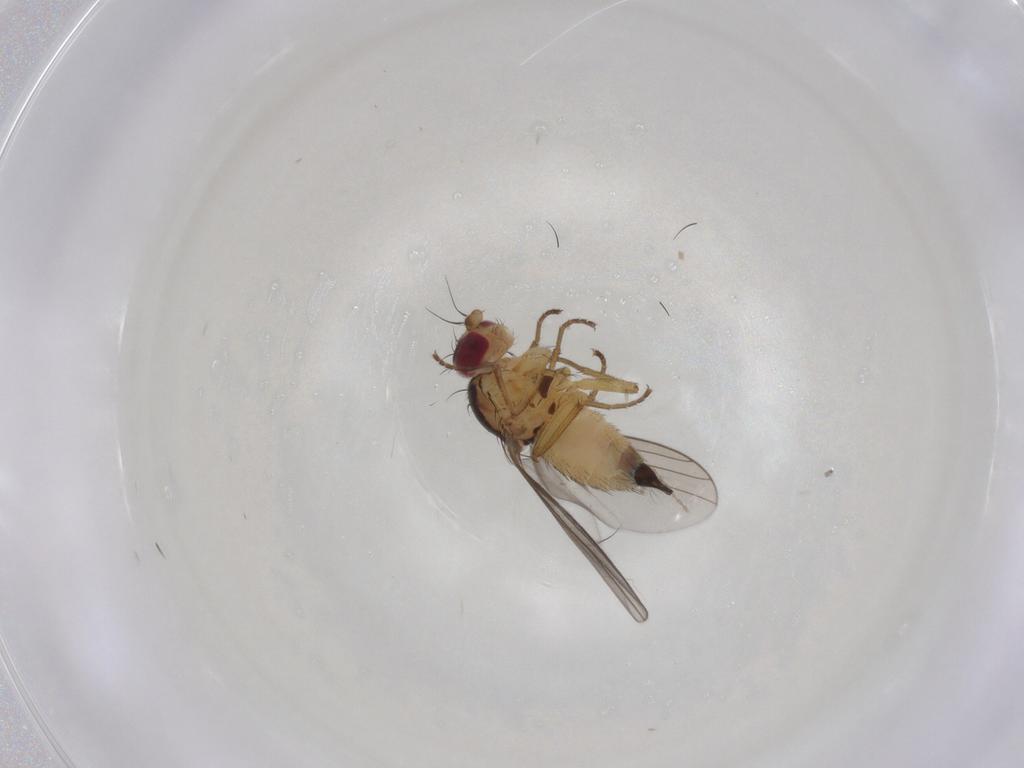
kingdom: Animalia
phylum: Arthropoda
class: Insecta
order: Diptera
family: Agromyzidae
